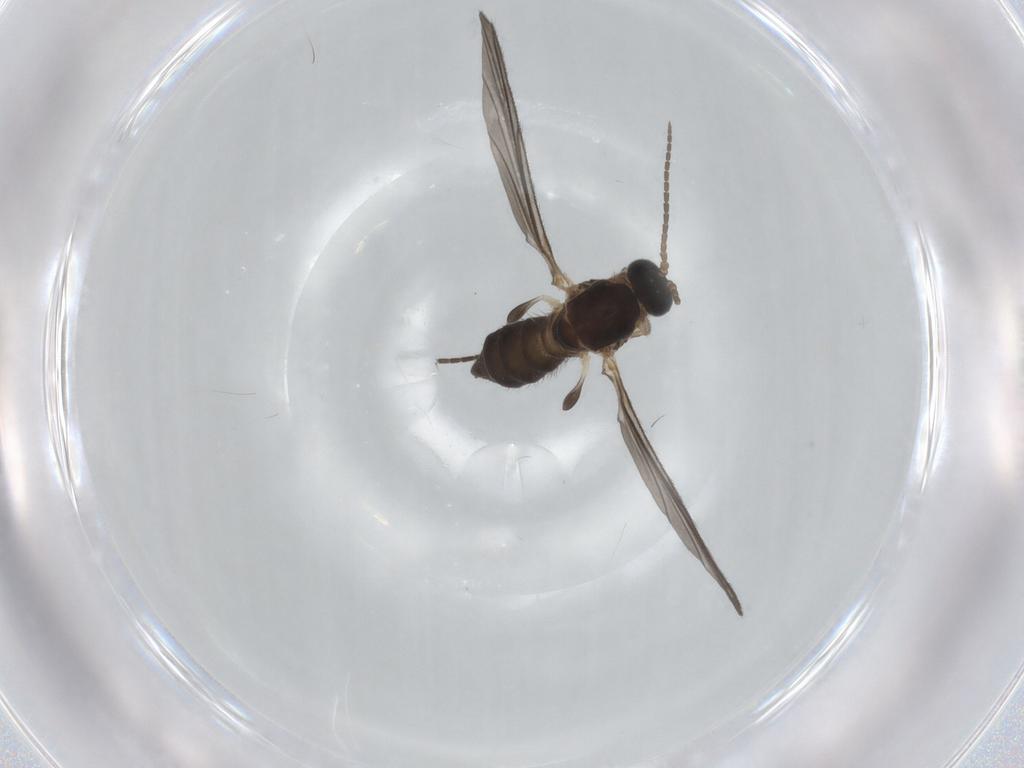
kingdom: Animalia
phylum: Arthropoda
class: Insecta
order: Diptera
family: Sciaridae
